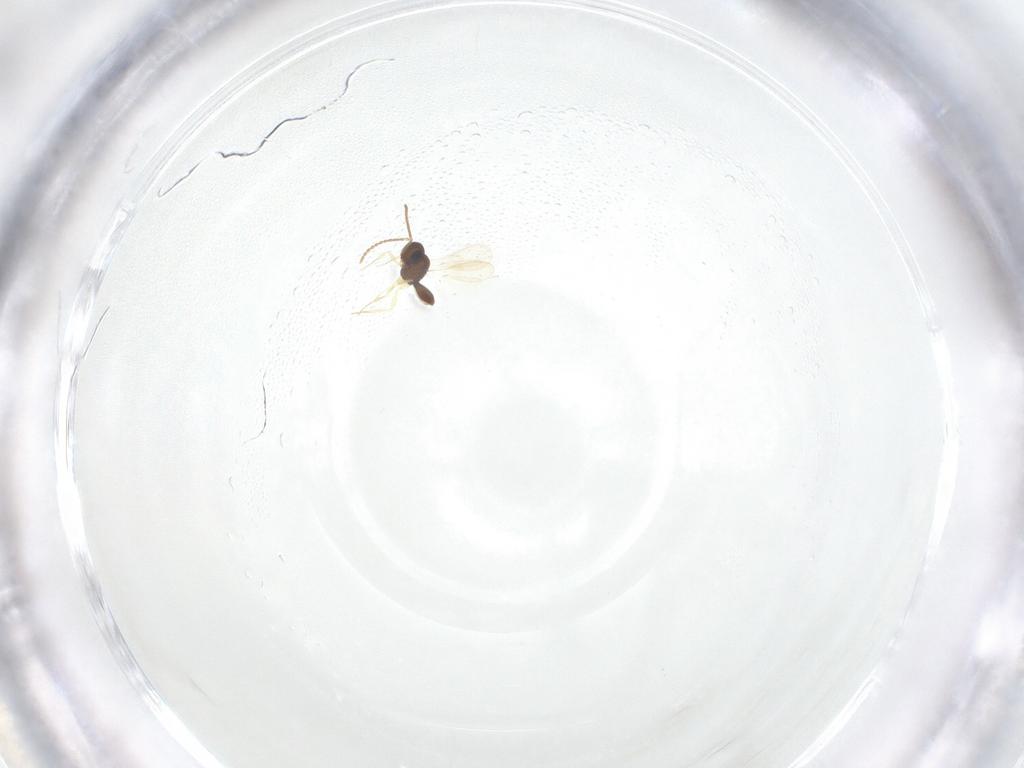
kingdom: Animalia
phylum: Arthropoda
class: Insecta
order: Hymenoptera
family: Scelionidae
